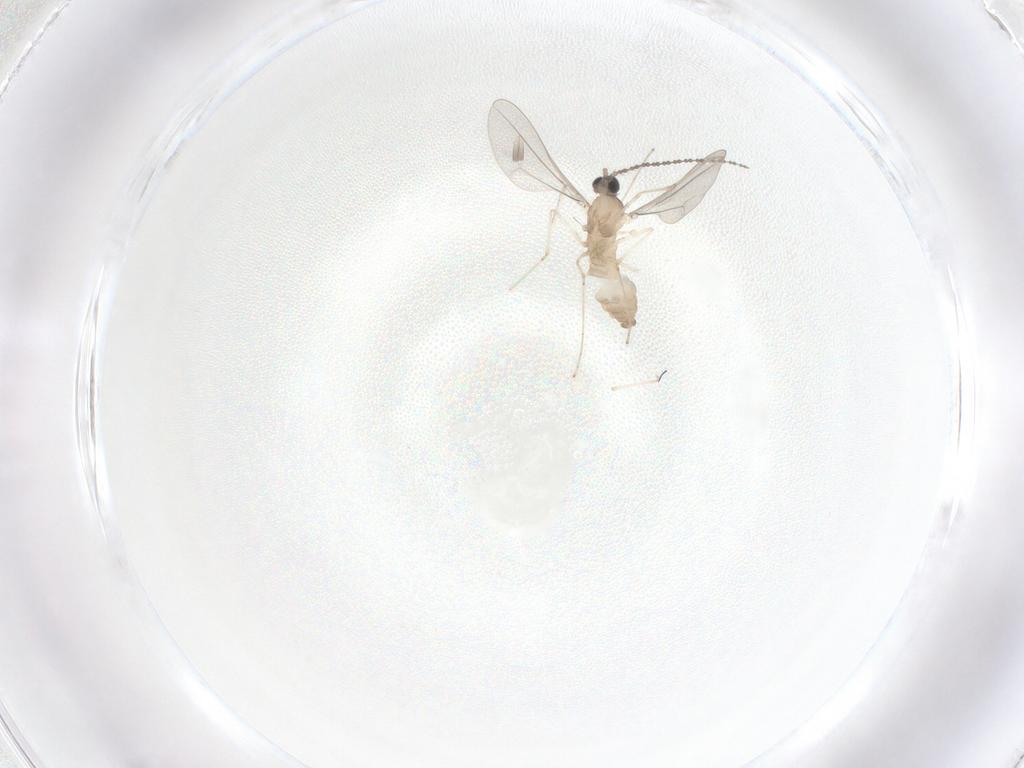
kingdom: Animalia
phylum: Arthropoda
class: Insecta
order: Diptera
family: Cecidomyiidae
